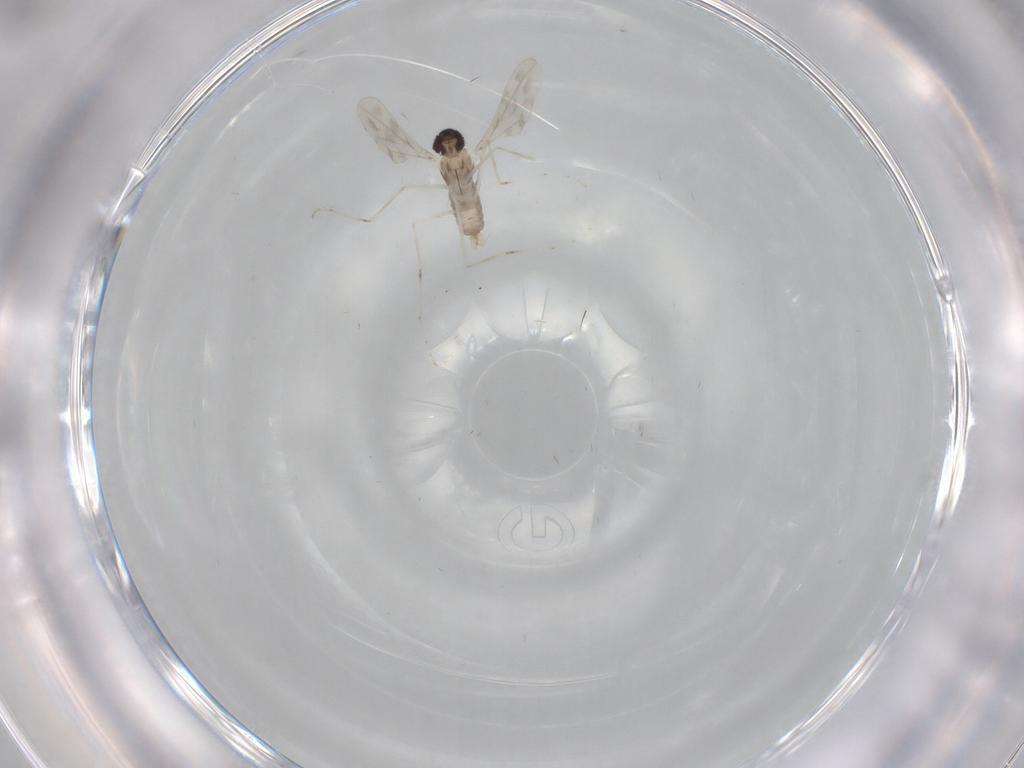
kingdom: Animalia
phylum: Arthropoda
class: Insecta
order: Diptera
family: Cecidomyiidae
